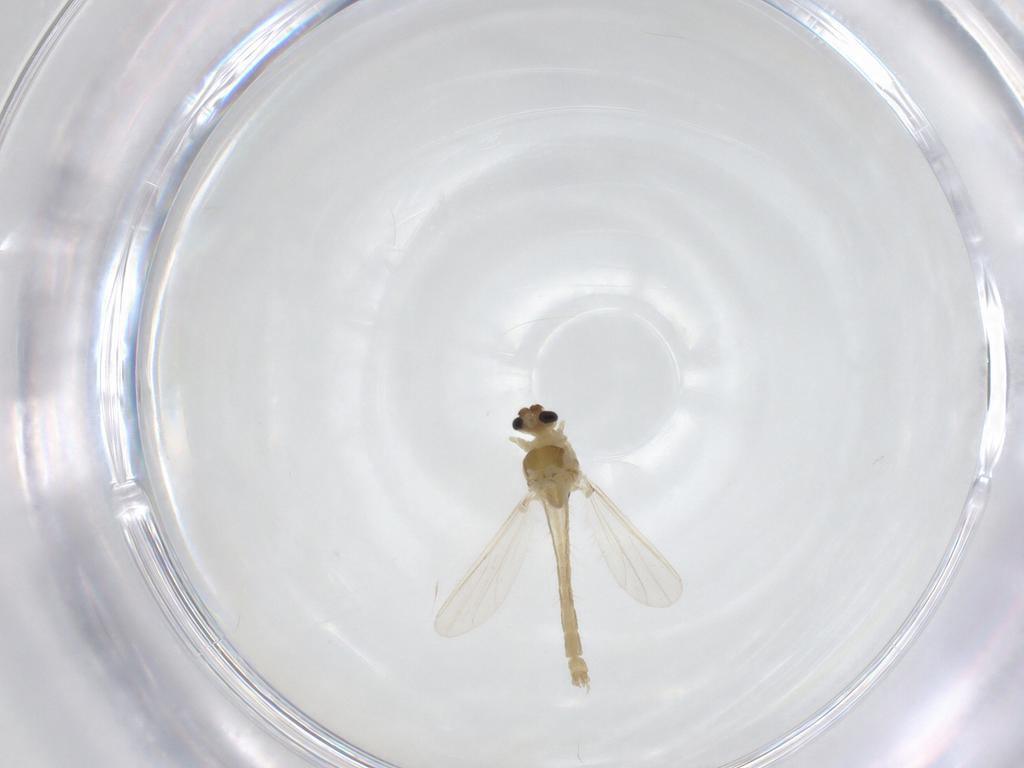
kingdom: Animalia
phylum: Arthropoda
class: Insecta
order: Diptera
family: Chironomidae
